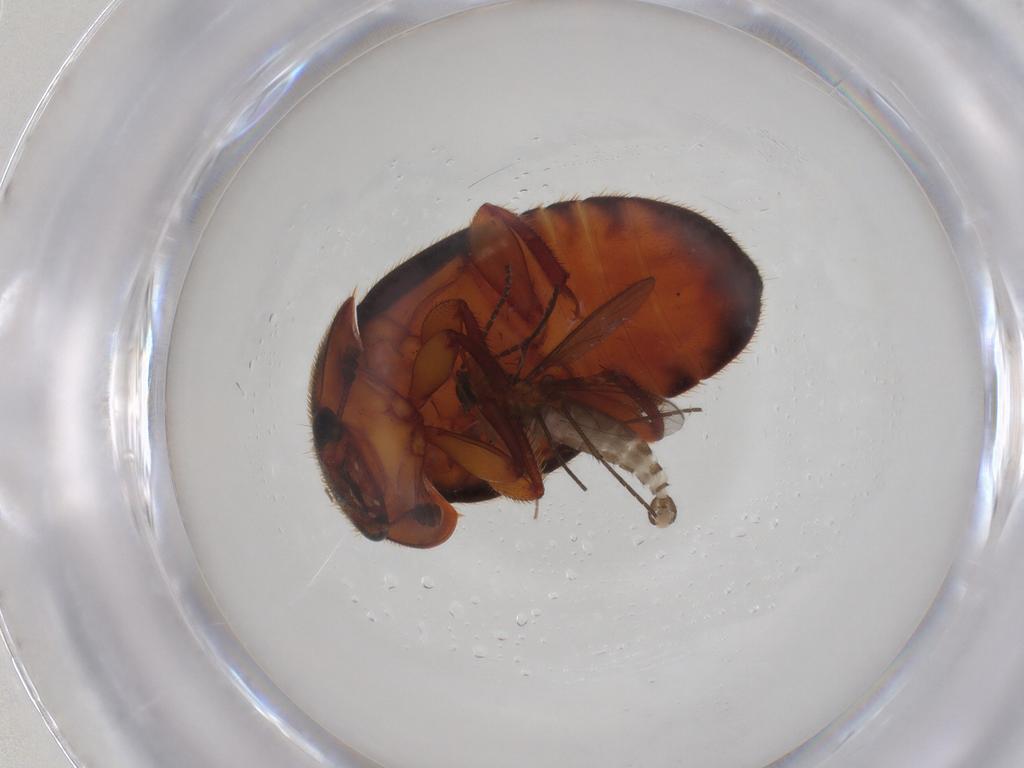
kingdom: Animalia
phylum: Arthropoda
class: Insecta
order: Diptera
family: Sciaridae
